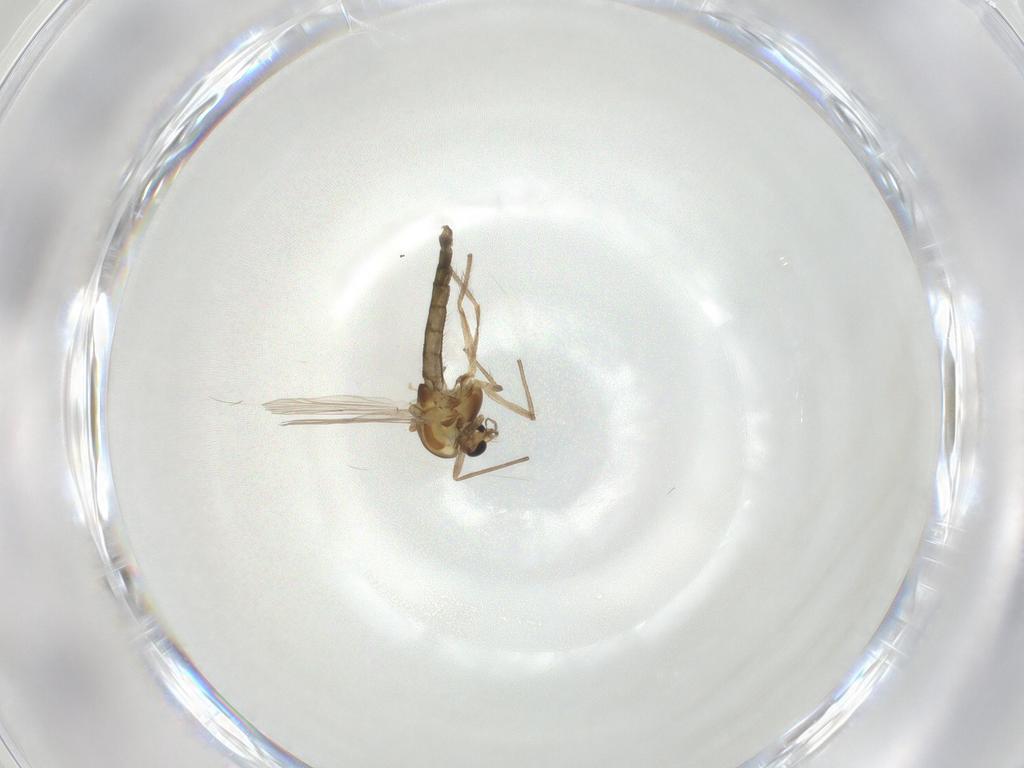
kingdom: Animalia
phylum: Arthropoda
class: Insecta
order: Diptera
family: Chironomidae
